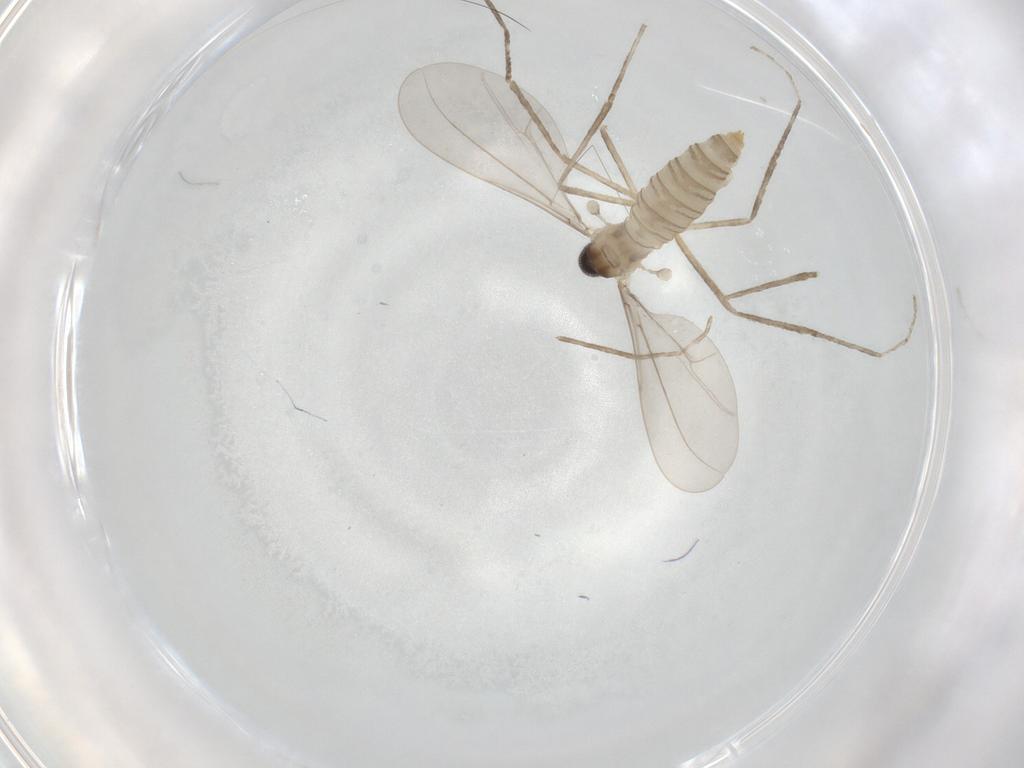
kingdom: Animalia
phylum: Arthropoda
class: Insecta
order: Diptera
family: Cecidomyiidae
